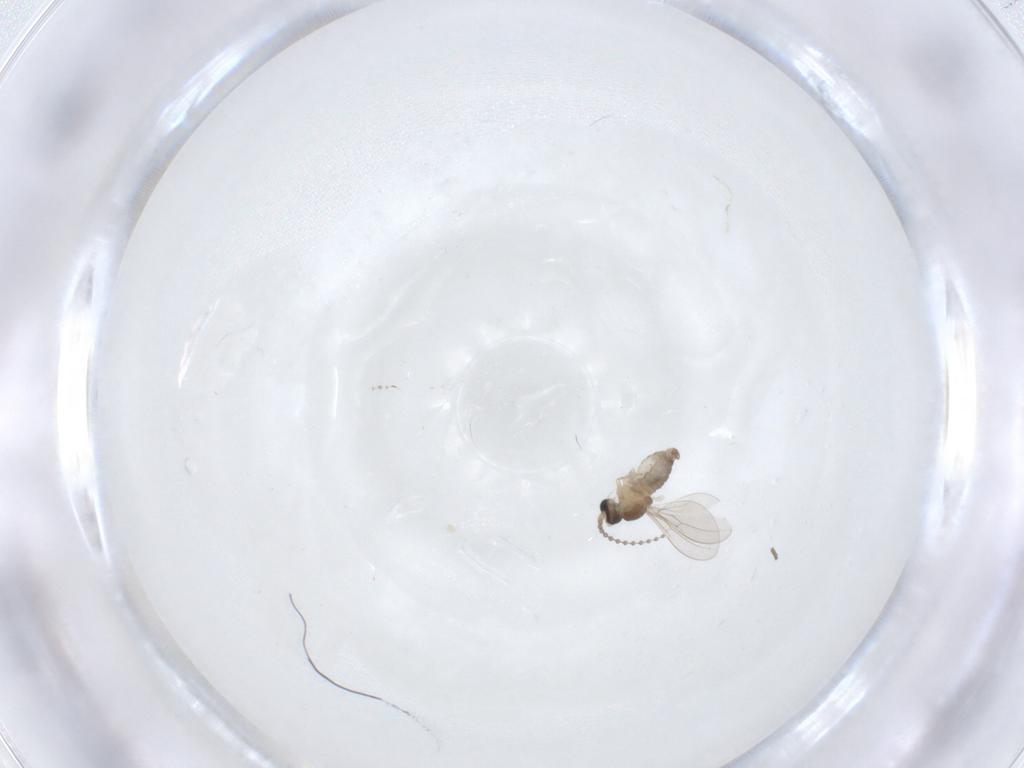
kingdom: Animalia
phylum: Arthropoda
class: Insecta
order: Diptera
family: Cecidomyiidae
